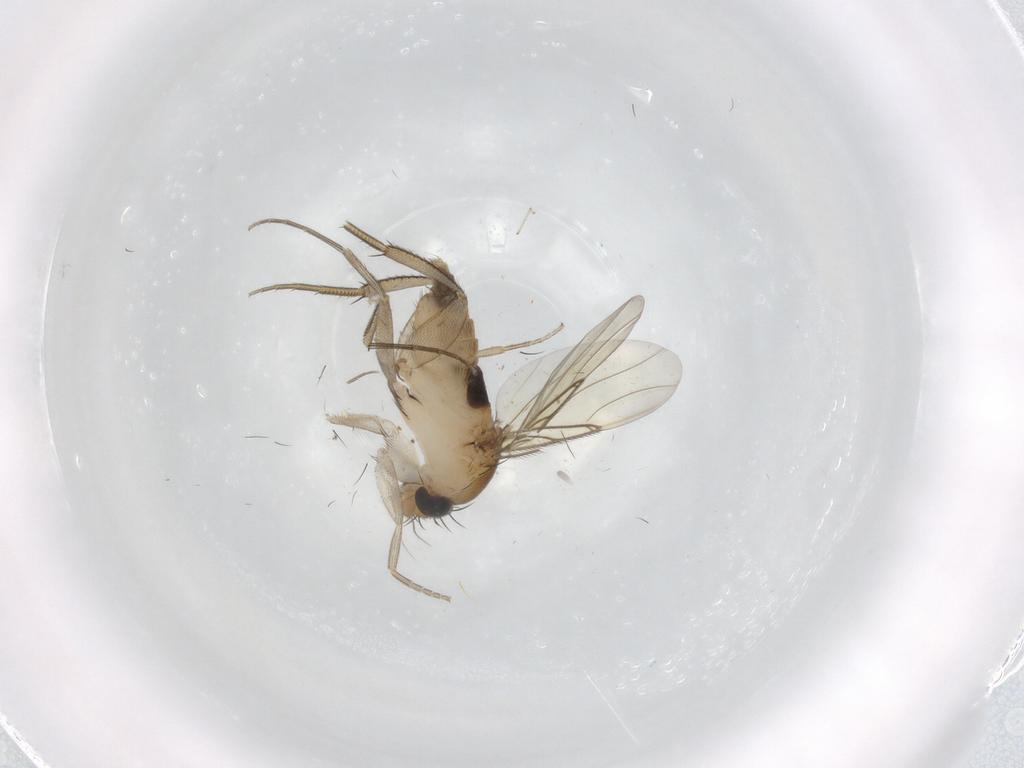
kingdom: Animalia
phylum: Arthropoda
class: Insecta
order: Diptera
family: Phoridae
